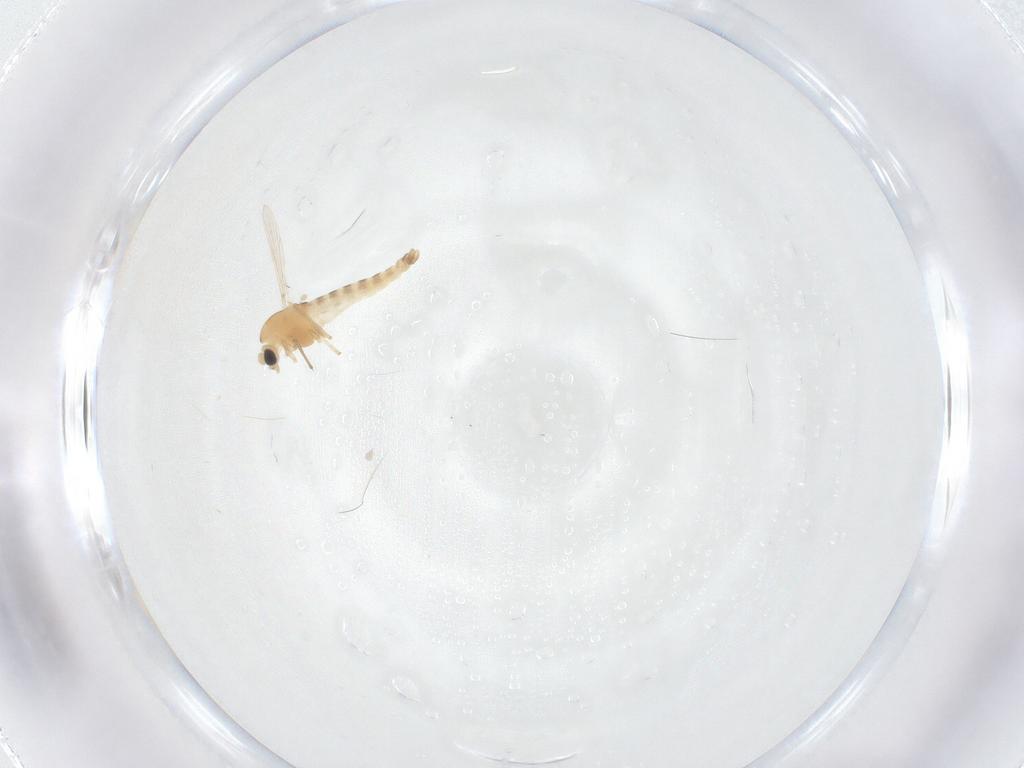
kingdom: Animalia
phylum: Arthropoda
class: Insecta
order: Diptera
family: Chironomidae
